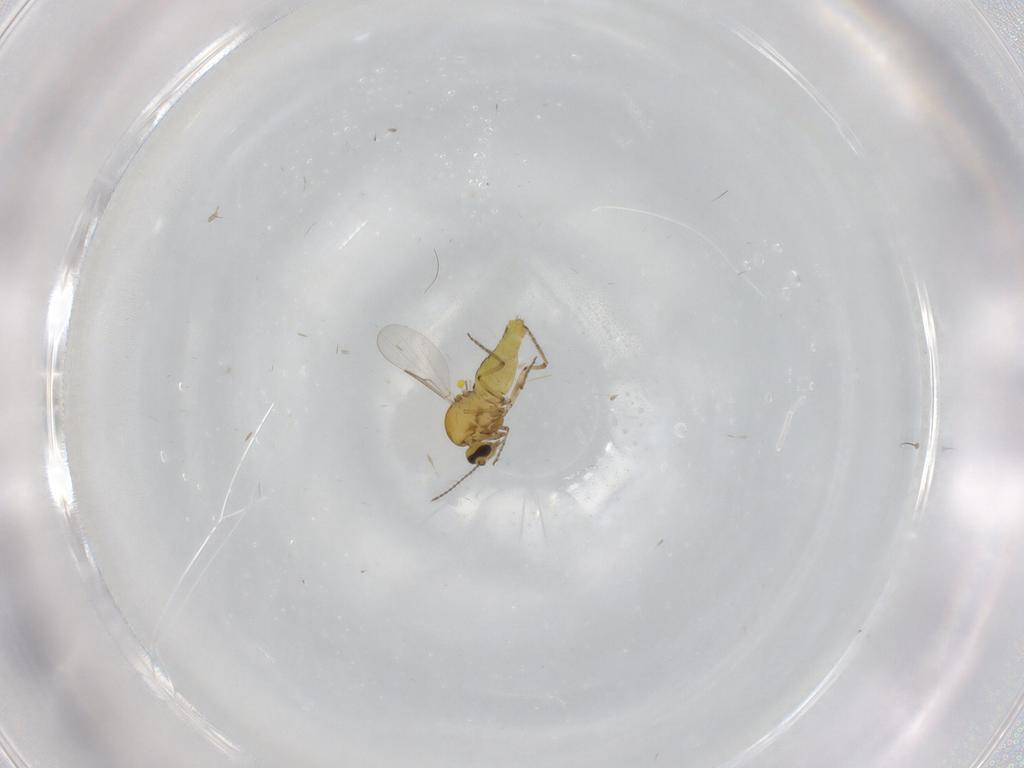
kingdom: Animalia
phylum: Arthropoda
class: Insecta
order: Diptera
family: Ceratopogonidae
